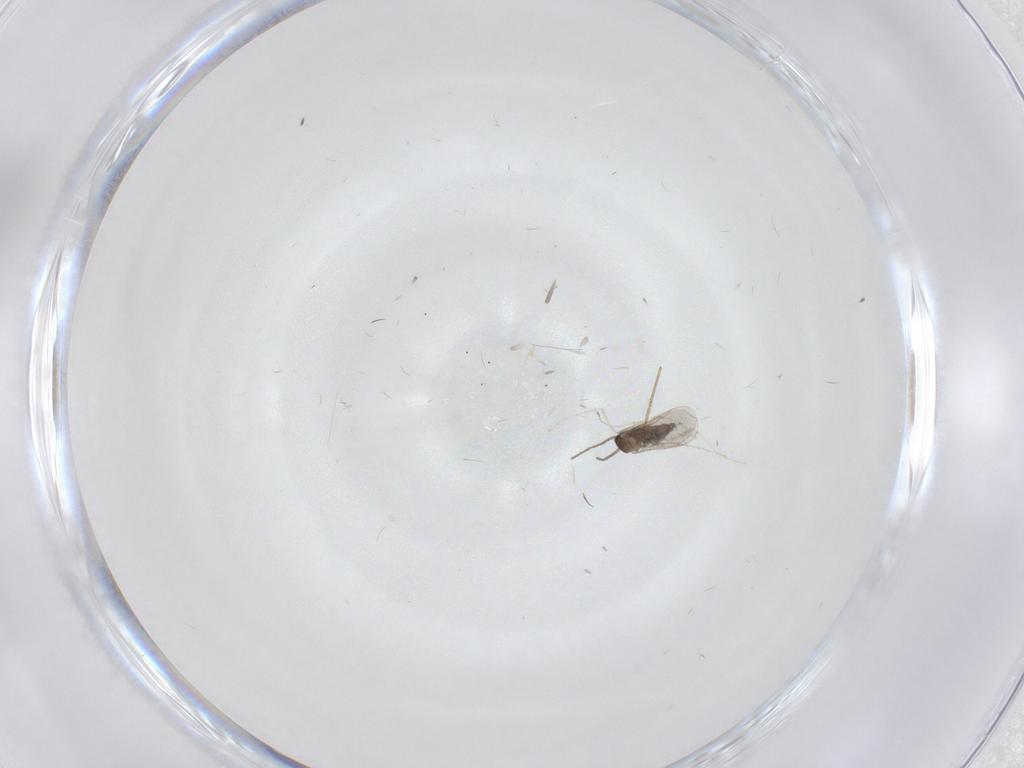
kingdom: Animalia
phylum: Arthropoda
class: Insecta
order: Diptera
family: Chironomidae
